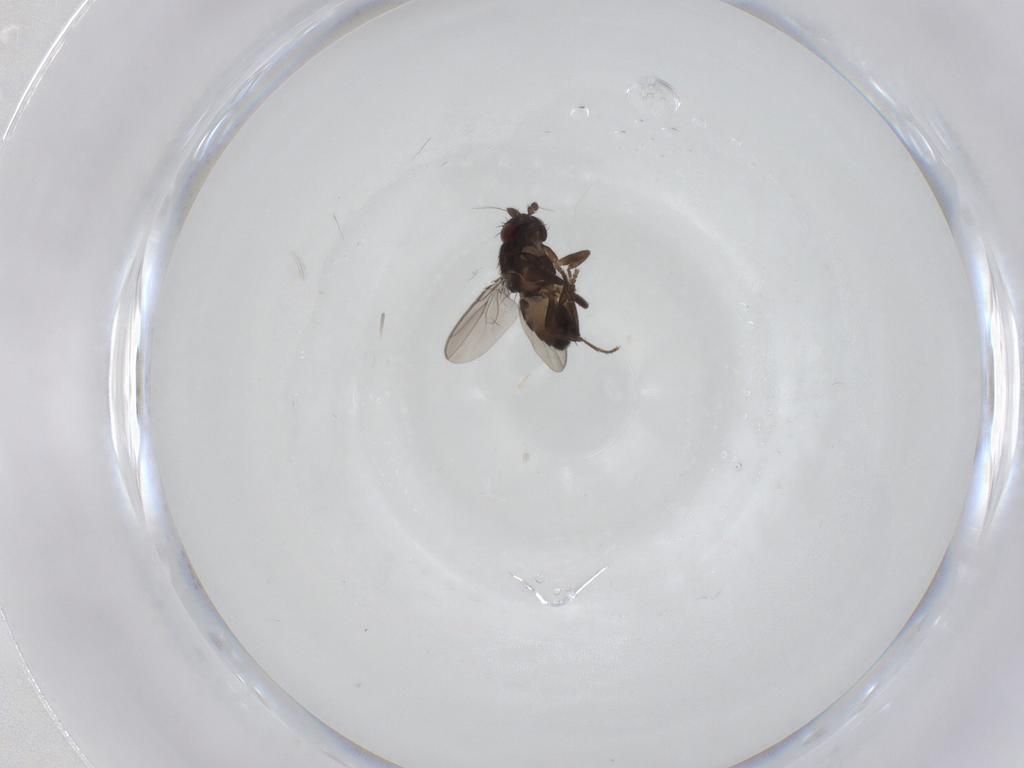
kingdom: Animalia
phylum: Arthropoda
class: Insecta
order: Diptera
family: Sphaeroceridae
